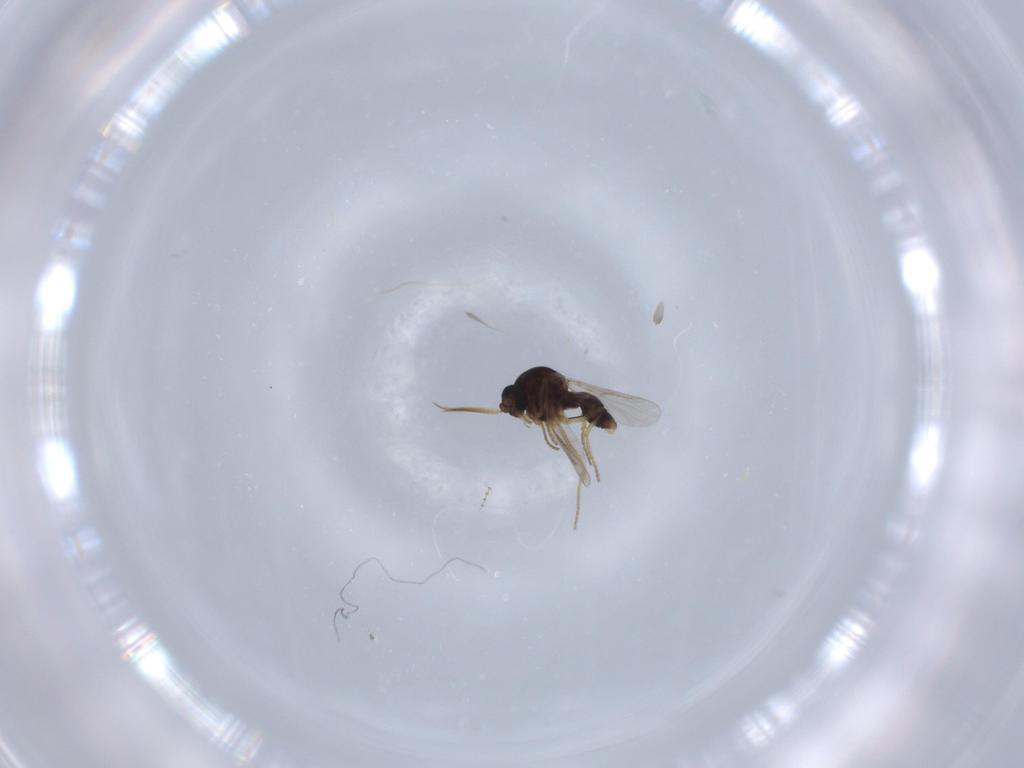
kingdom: Animalia
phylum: Arthropoda
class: Insecta
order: Diptera
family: Ceratopogonidae
